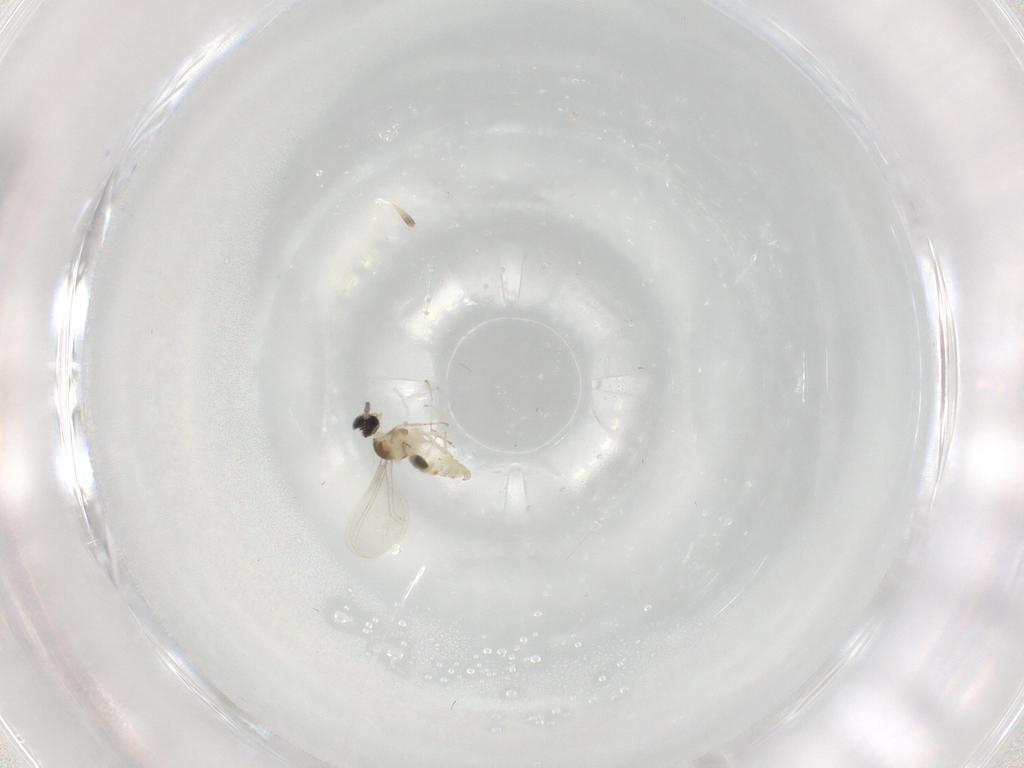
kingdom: Animalia
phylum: Arthropoda
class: Insecta
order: Diptera
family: Cecidomyiidae
